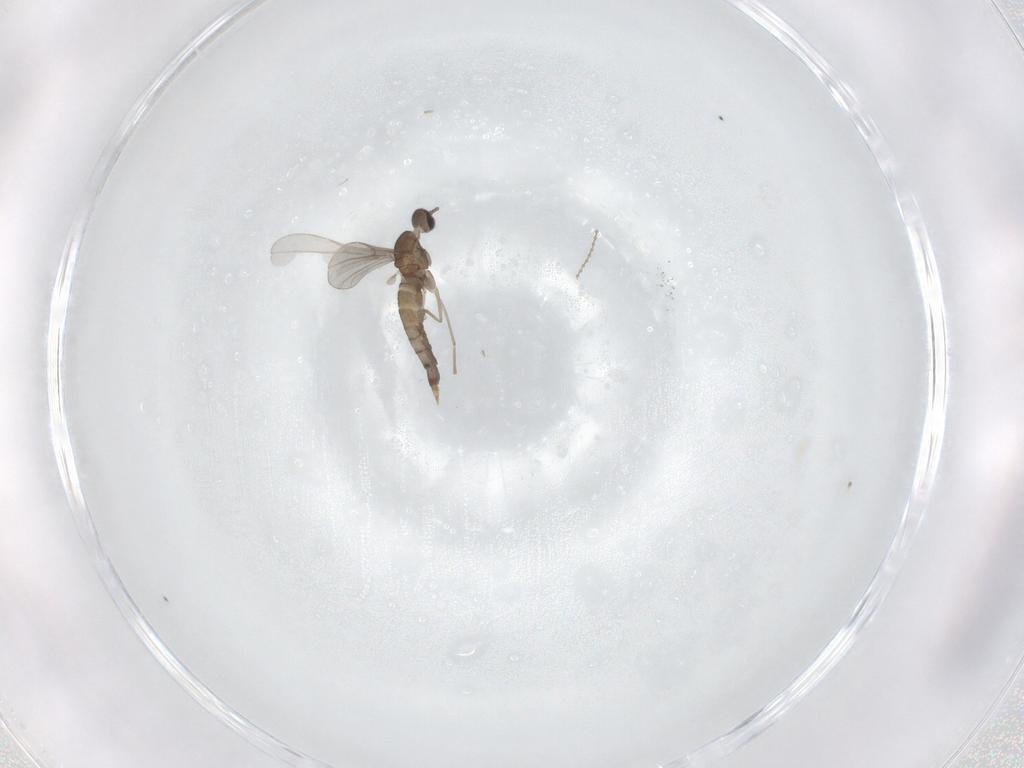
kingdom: Animalia
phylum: Arthropoda
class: Insecta
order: Diptera
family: Cecidomyiidae
